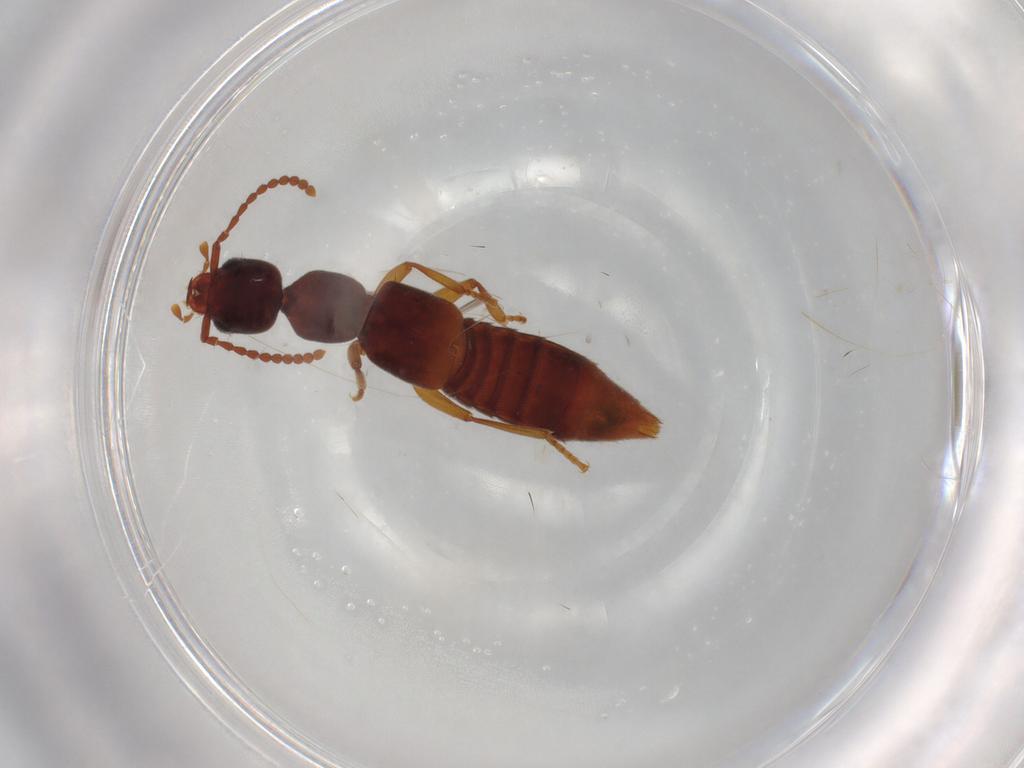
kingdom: Animalia
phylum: Arthropoda
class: Insecta
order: Coleoptera
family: Staphylinidae
